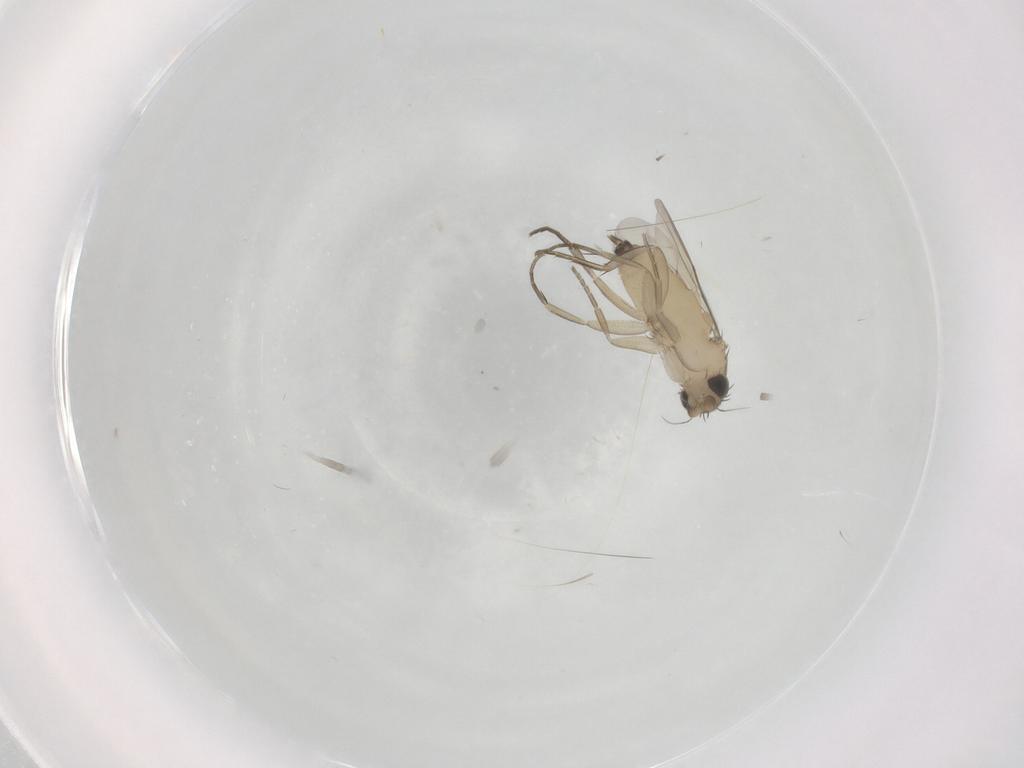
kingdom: Animalia
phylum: Arthropoda
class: Insecta
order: Diptera
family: Phoridae
